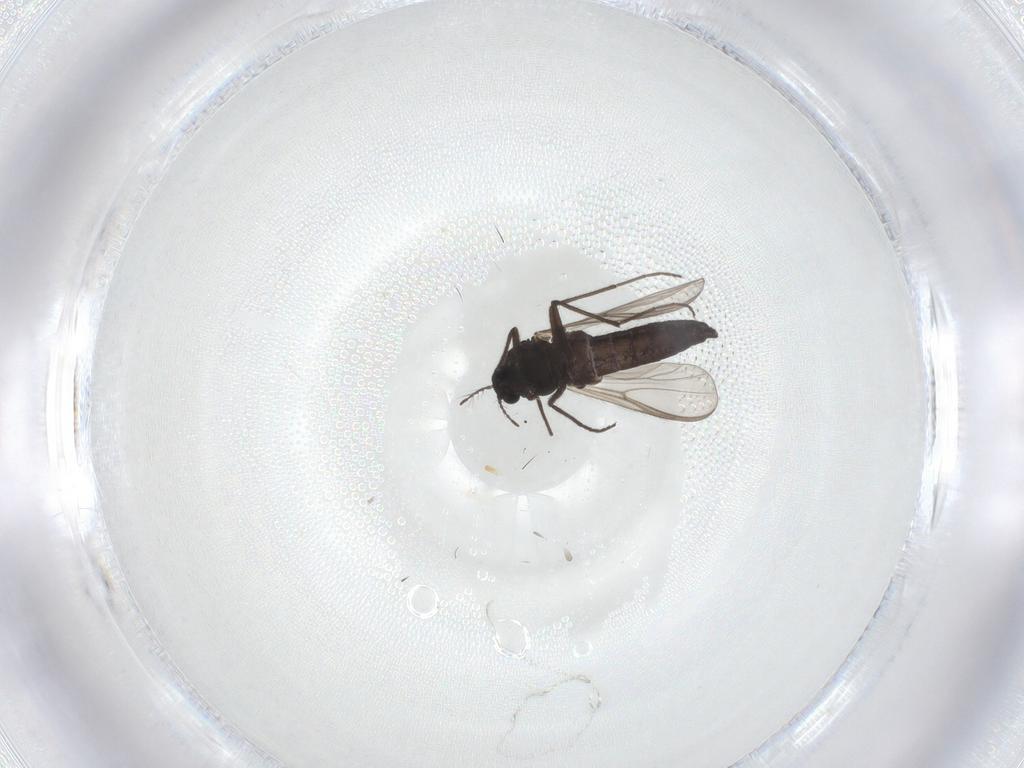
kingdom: Animalia
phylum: Arthropoda
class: Insecta
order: Diptera
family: Chironomidae
